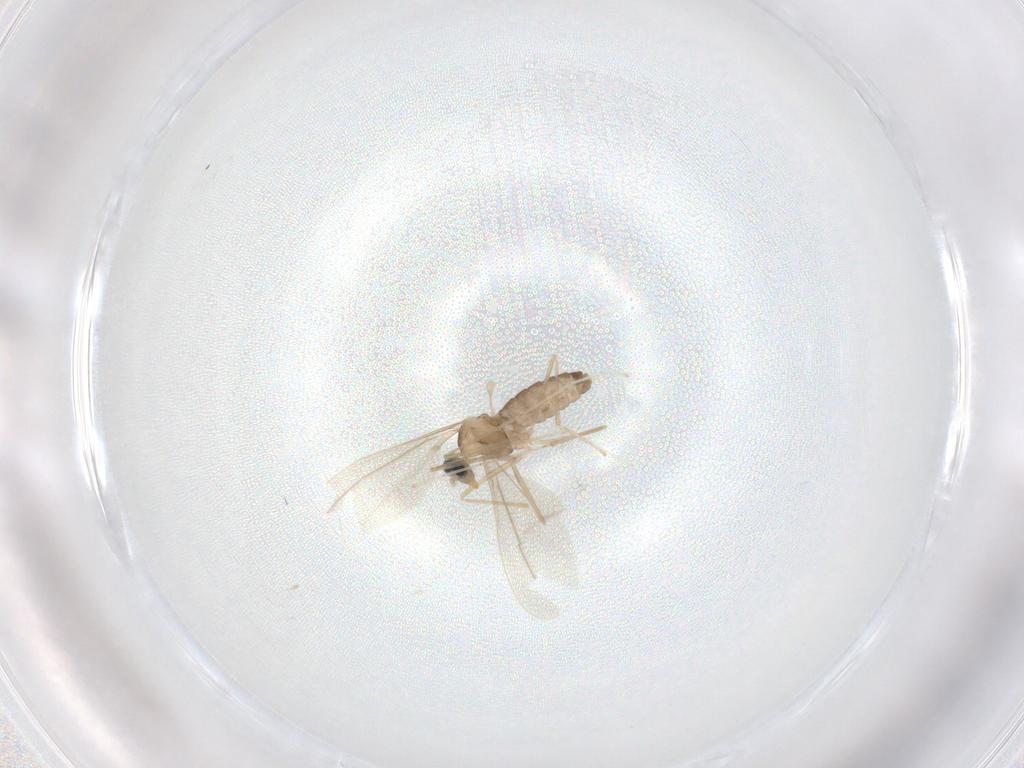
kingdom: Animalia
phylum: Arthropoda
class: Insecta
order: Diptera
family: Cecidomyiidae
